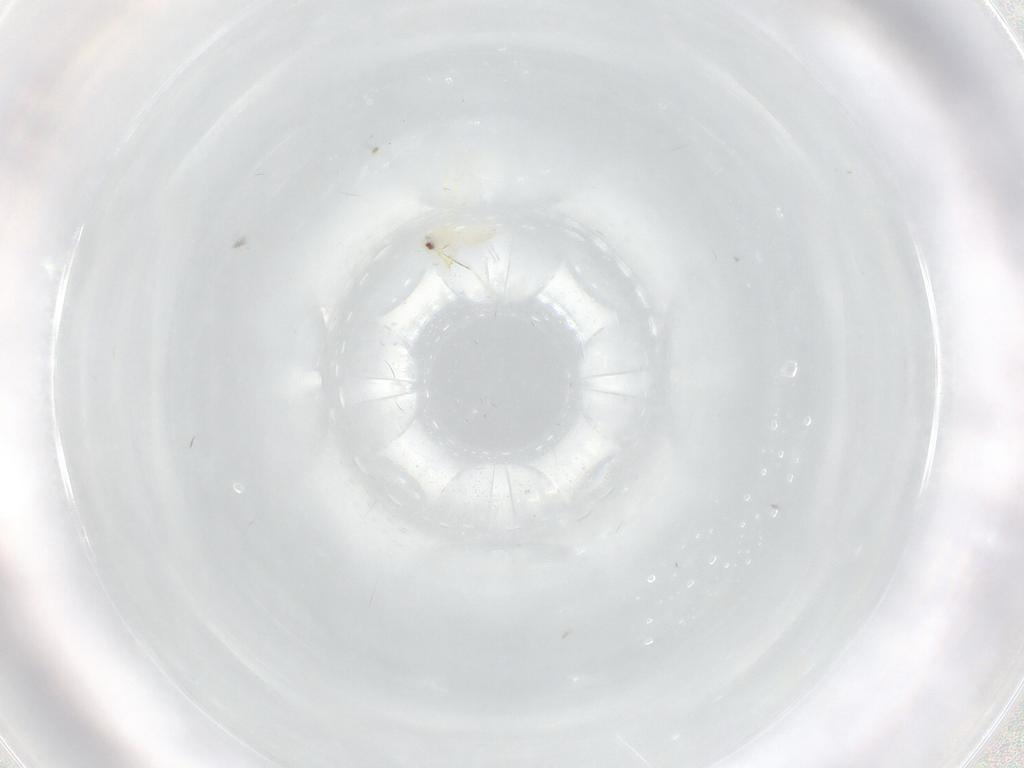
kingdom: Animalia
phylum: Arthropoda
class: Insecta
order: Hemiptera
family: Aleyrodidae
